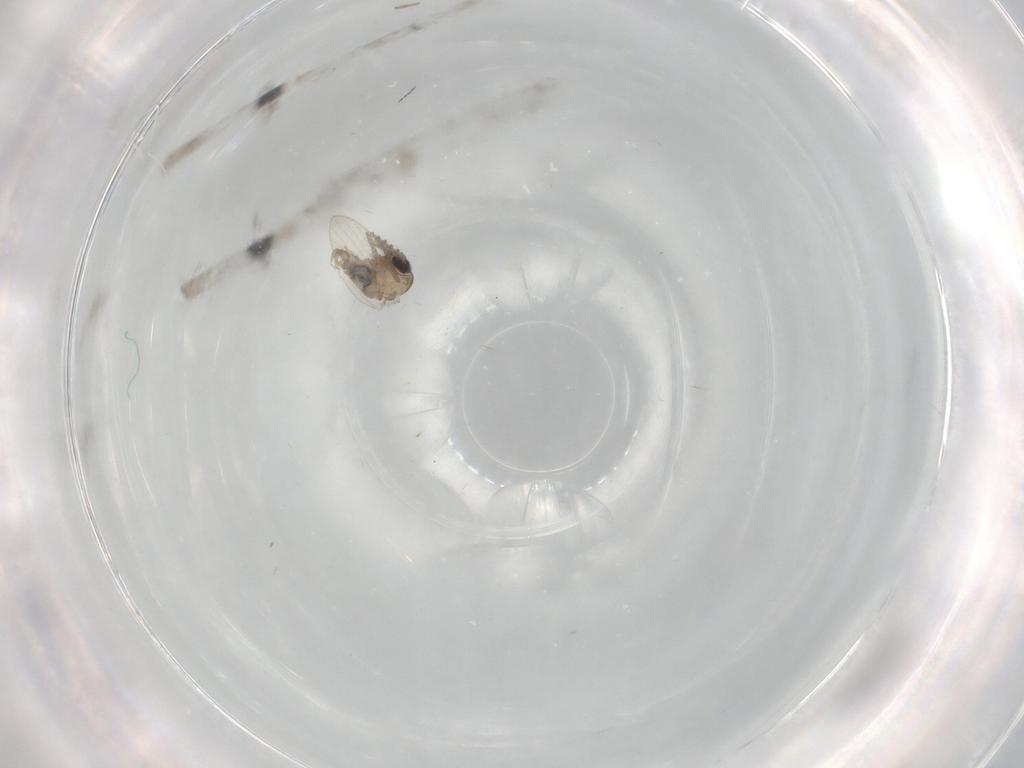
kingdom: Animalia
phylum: Arthropoda
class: Insecta
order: Diptera
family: Psychodidae
